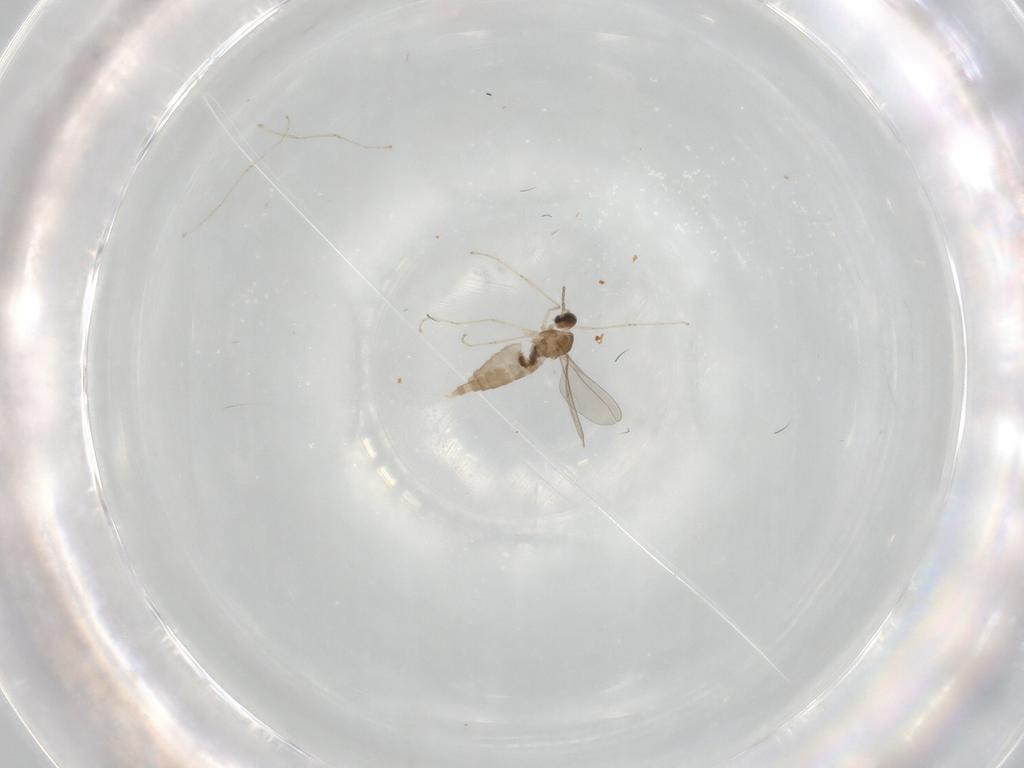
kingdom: Animalia
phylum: Arthropoda
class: Insecta
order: Diptera
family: Limoniidae
